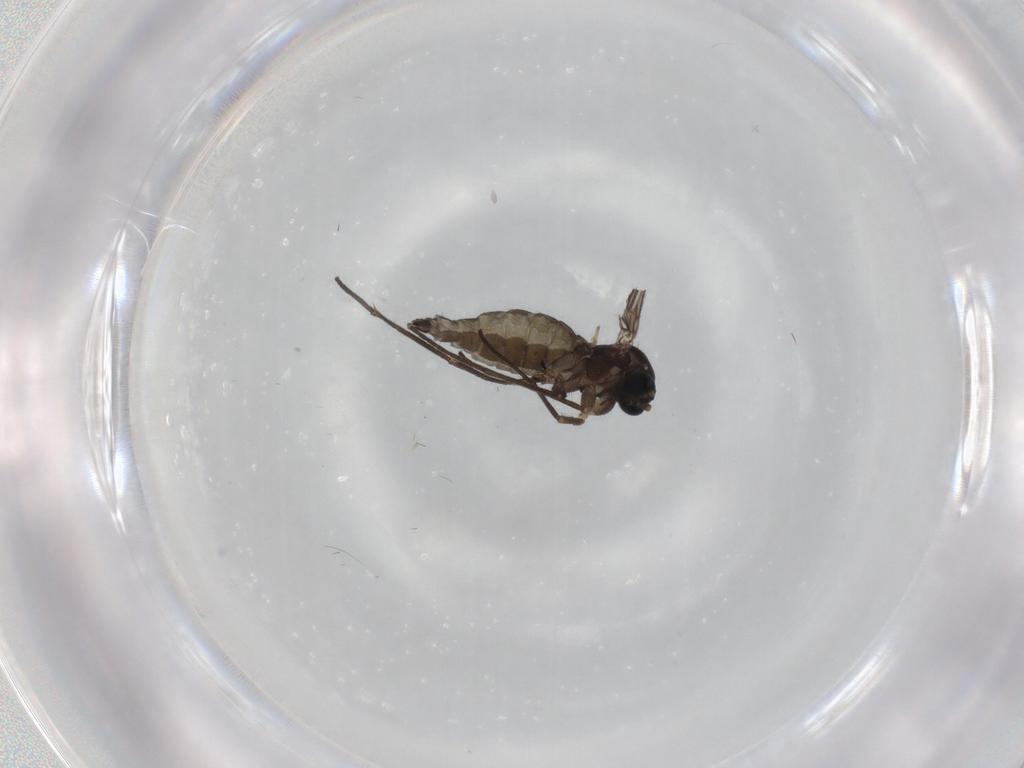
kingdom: Animalia
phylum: Arthropoda
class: Insecta
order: Diptera
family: Sciaridae
